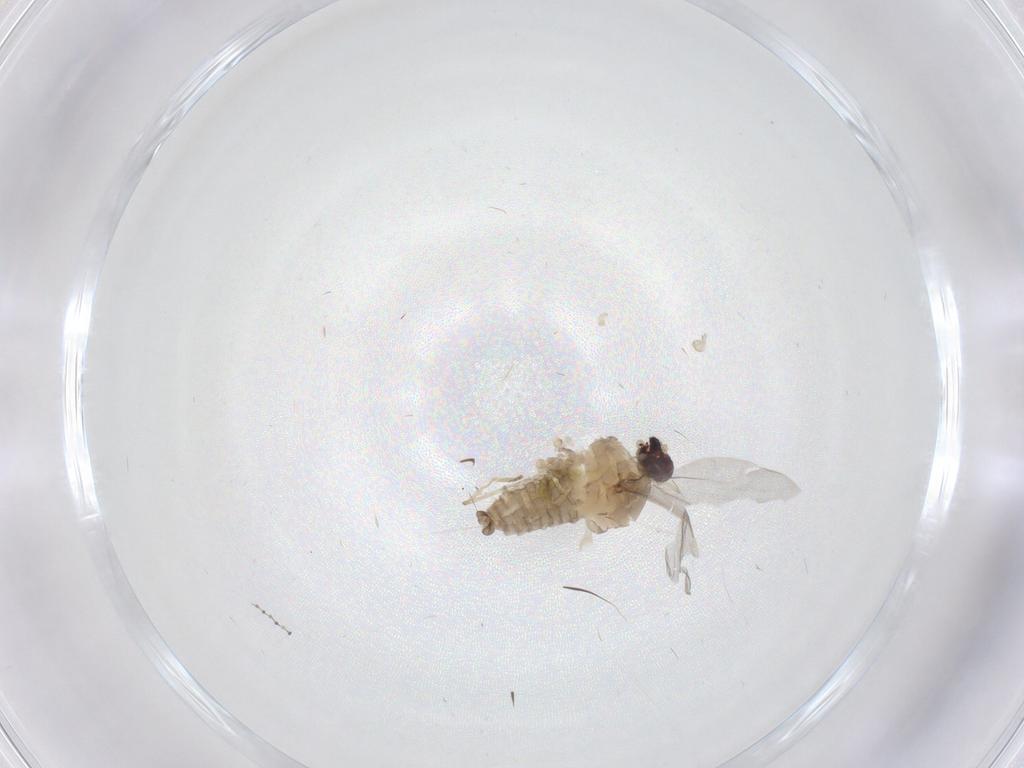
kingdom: Animalia
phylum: Arthropoda
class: Insecta
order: Diptera
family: Cecidomyiidae
